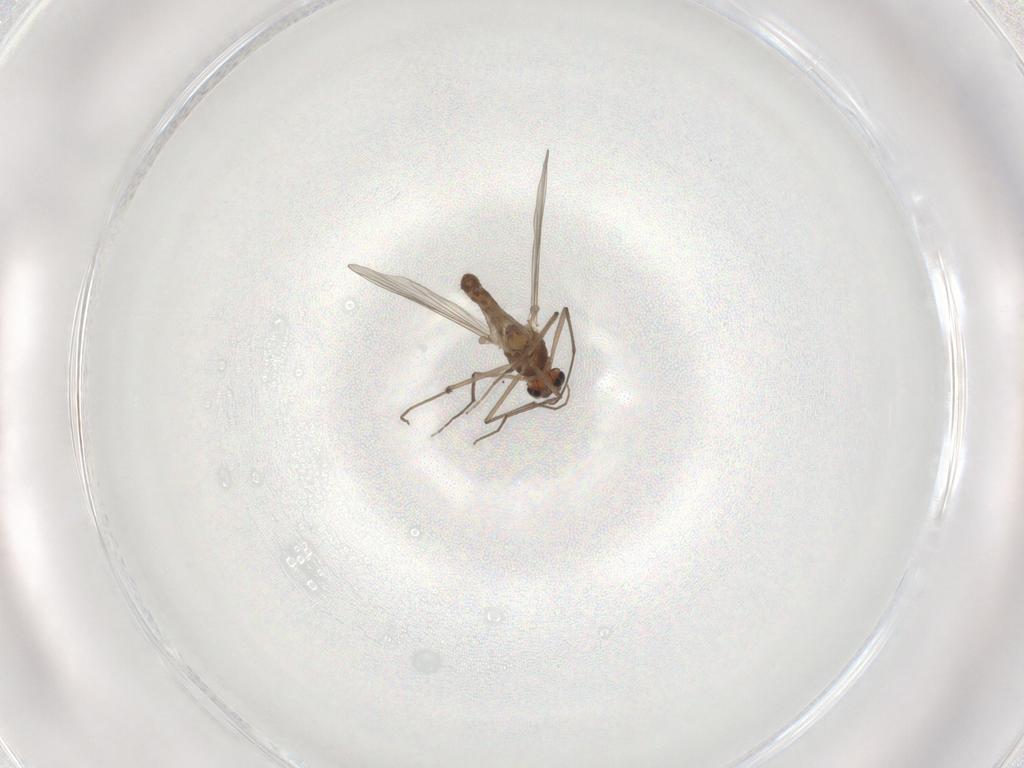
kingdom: Animalia
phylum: Arthropoda
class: Insecta
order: Diptera
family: Chironomidae
